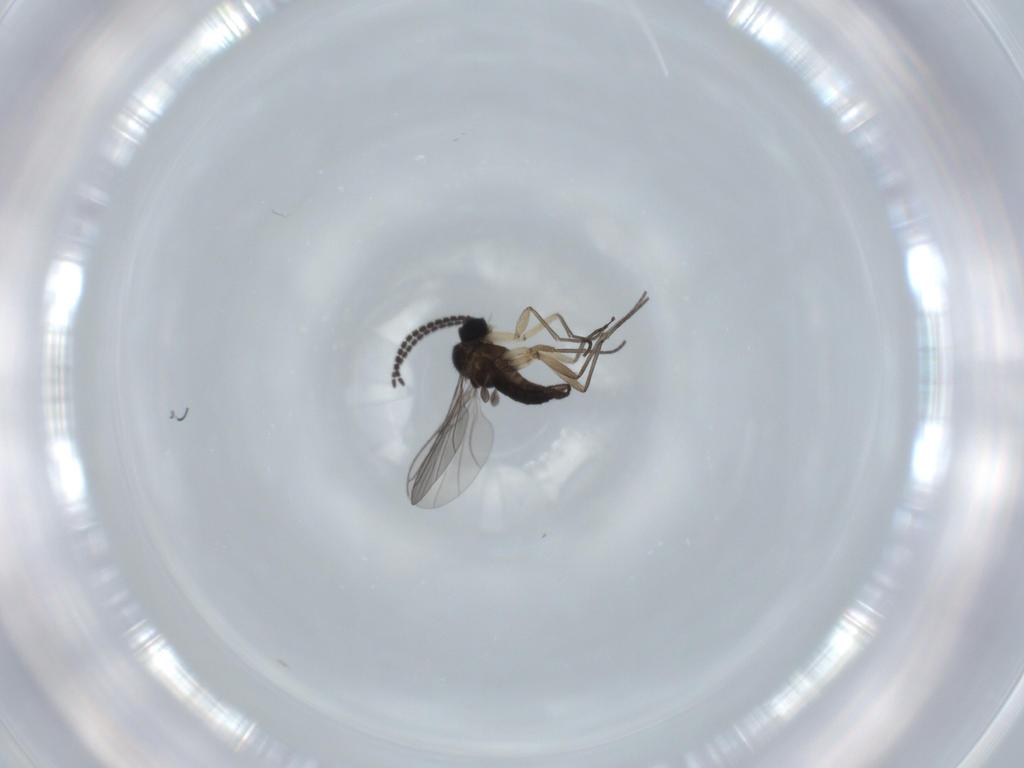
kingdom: Animalia
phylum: Arthropoda
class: Insecta
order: Diptera
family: Sciaridae
